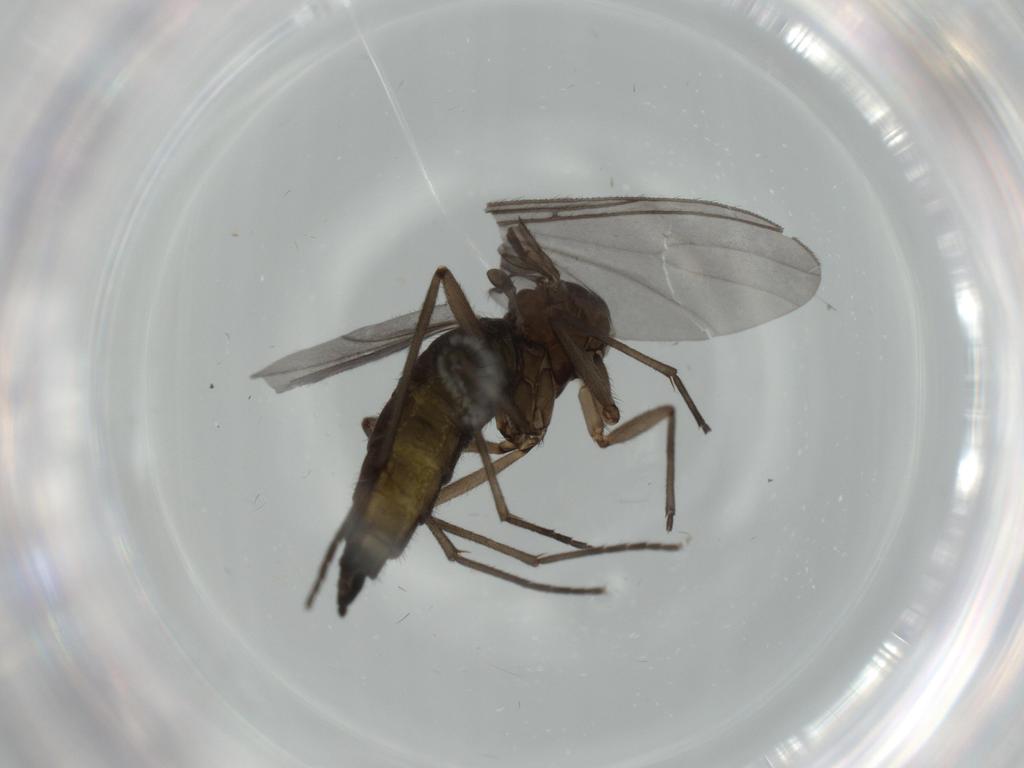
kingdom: Animalia
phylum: Arthropoda
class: Insecta
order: Diptera
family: Sciaridae
